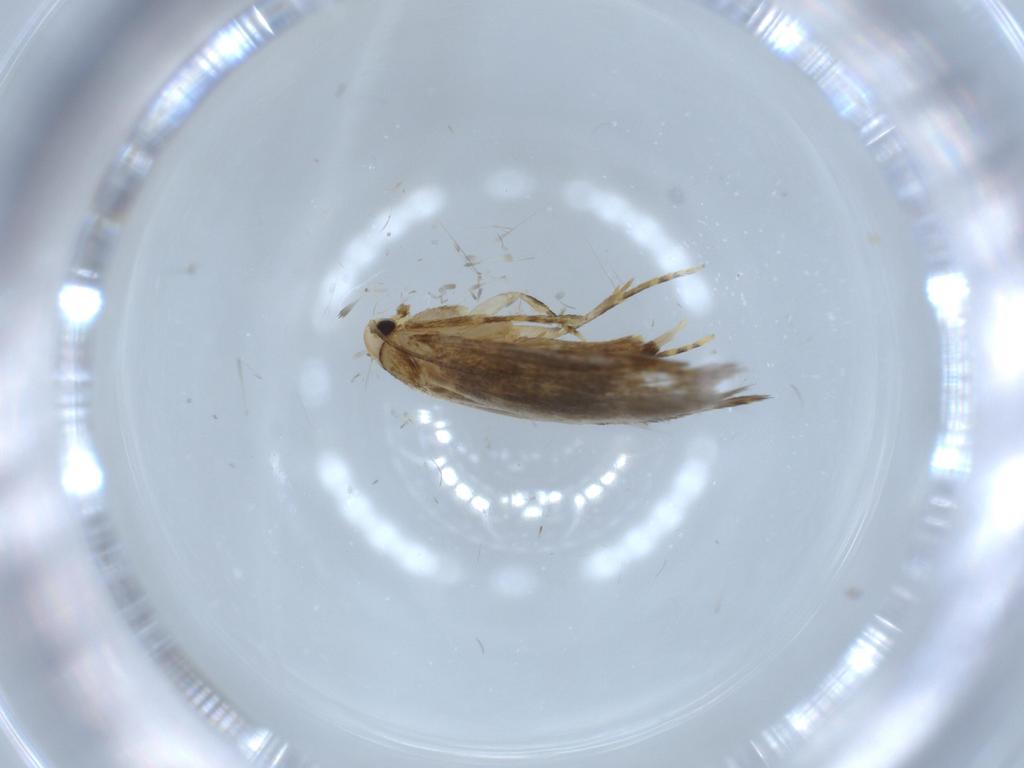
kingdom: Animalia
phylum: Arthropoda
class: Insecta
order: Lepidoptera
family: Tineidae
